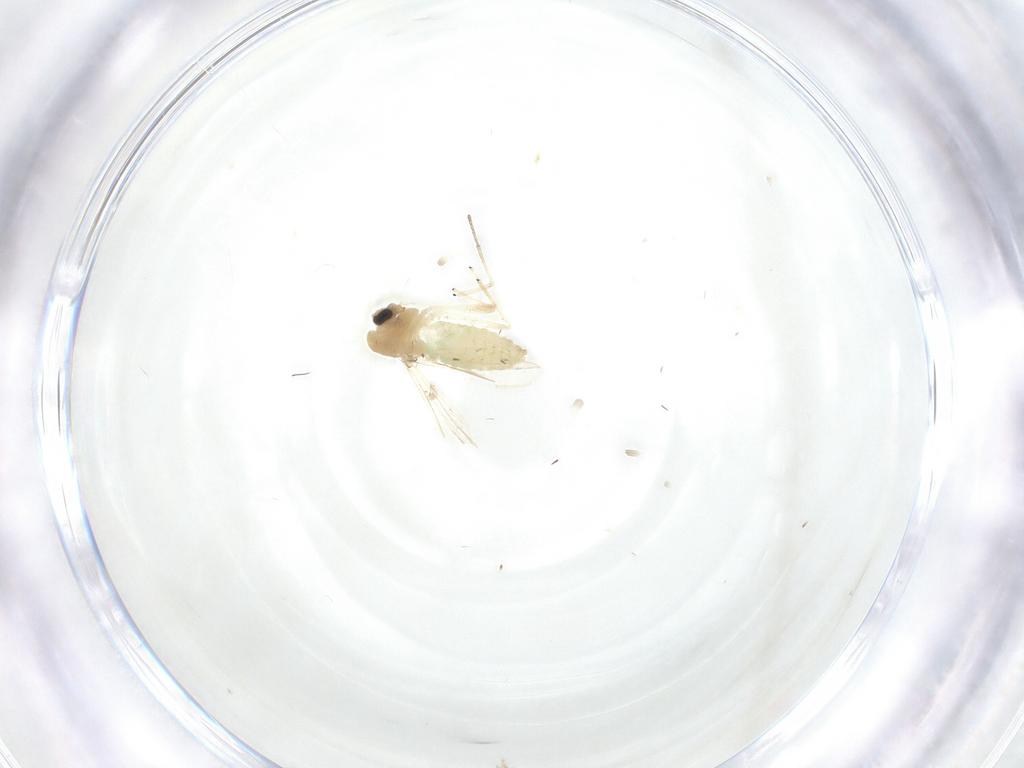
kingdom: Animalia
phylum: Arthropoda
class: Insecta
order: Diptera
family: Chironomidae
